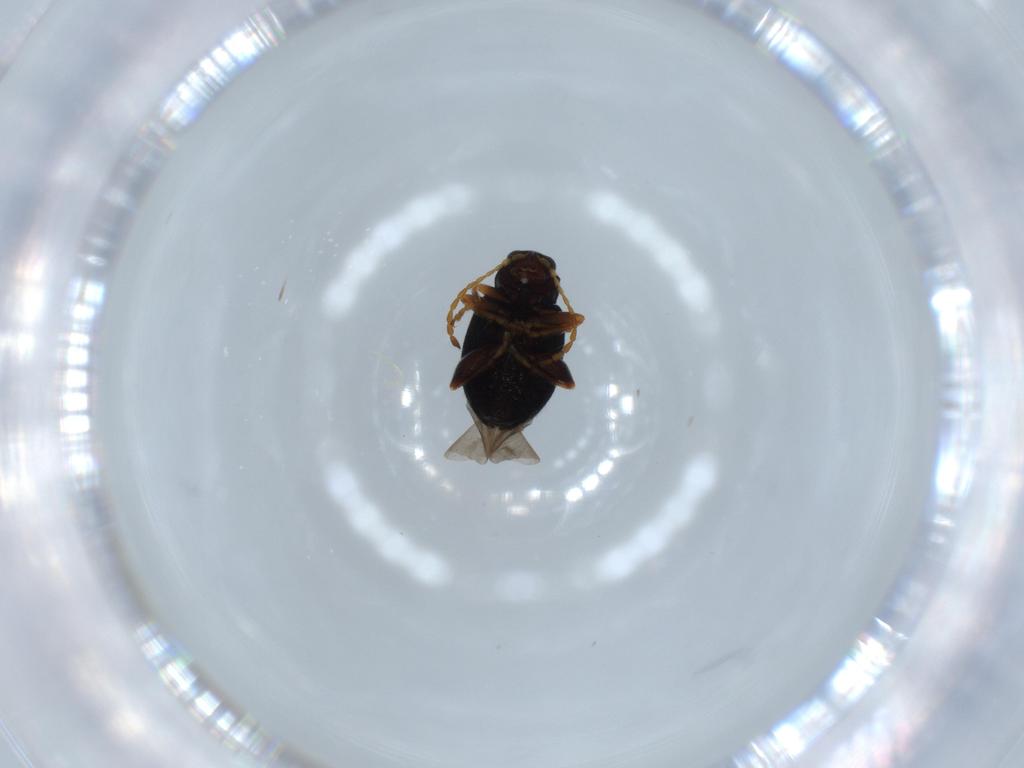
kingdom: Animalia
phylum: Arthropoda
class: Insecta
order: Coleoptera
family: Chrysomelidae
